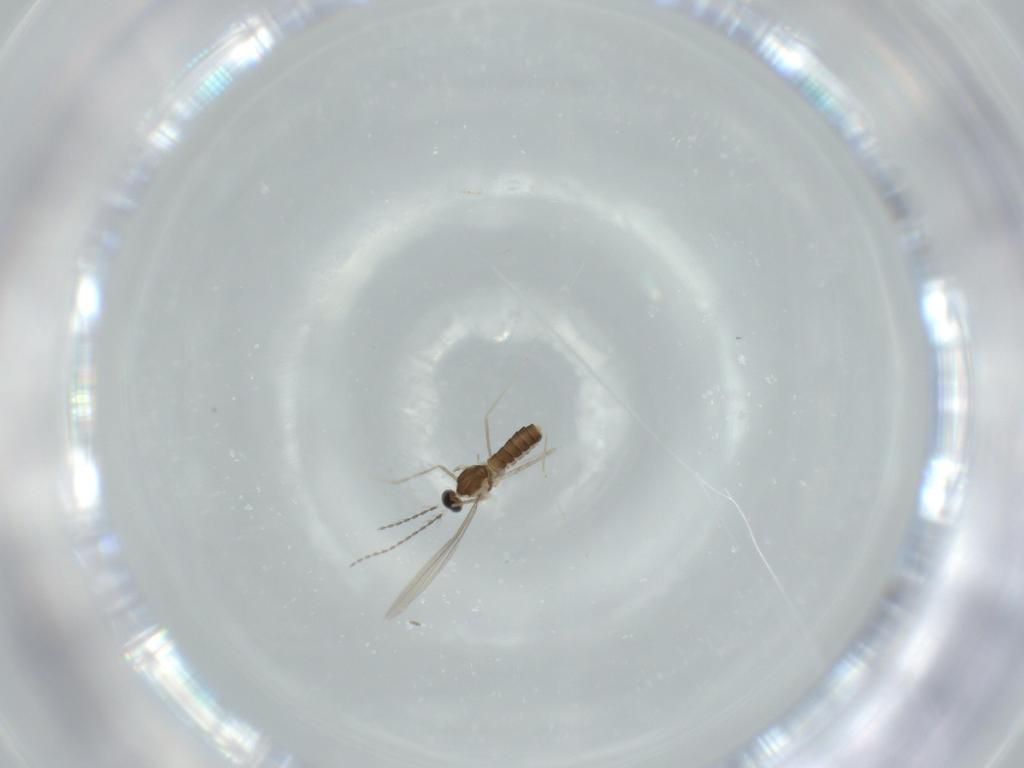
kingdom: Animalia
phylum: Arthropoda
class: Insecta
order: Diptera
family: Cecidomyiidae
